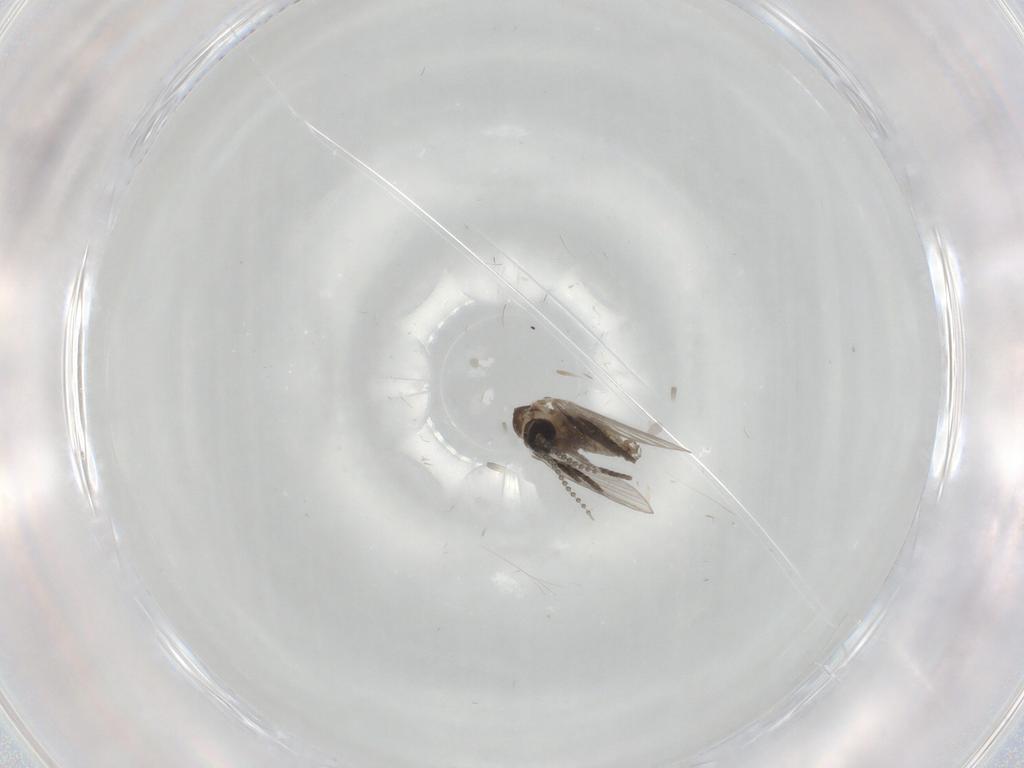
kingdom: Animalia
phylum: Arthropoda
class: Insecta
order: Diptera
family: Psychodidae
